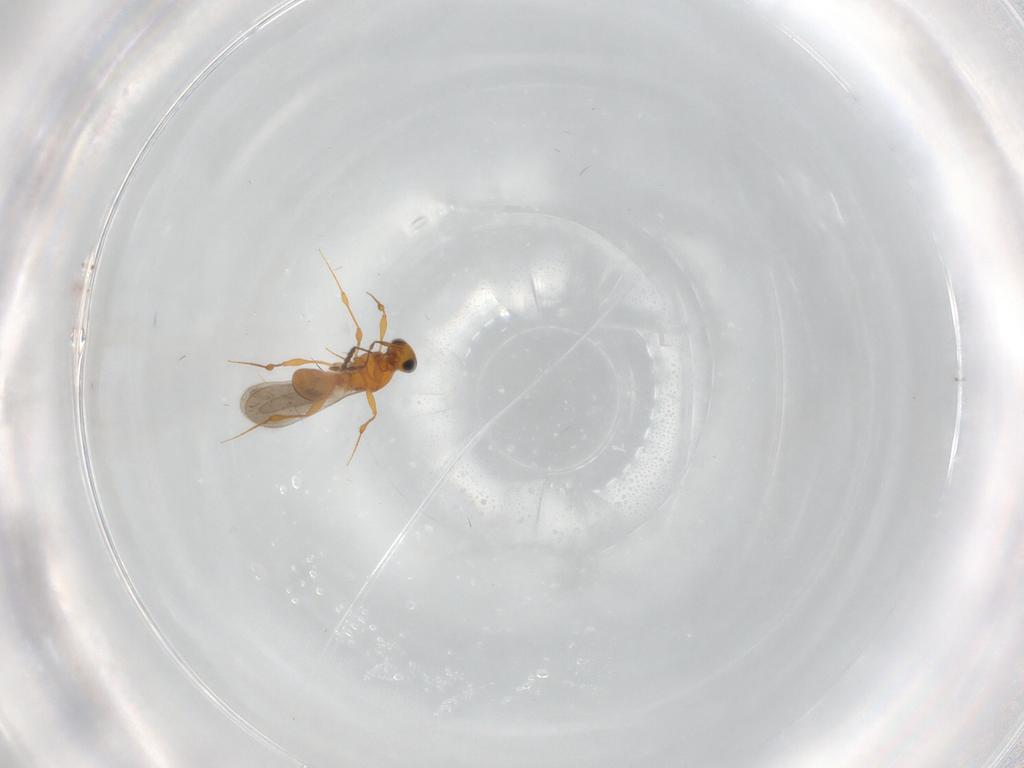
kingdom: Animalia
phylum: Arthropoda
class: Insecta
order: Hymenoptera
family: Platygastridae
